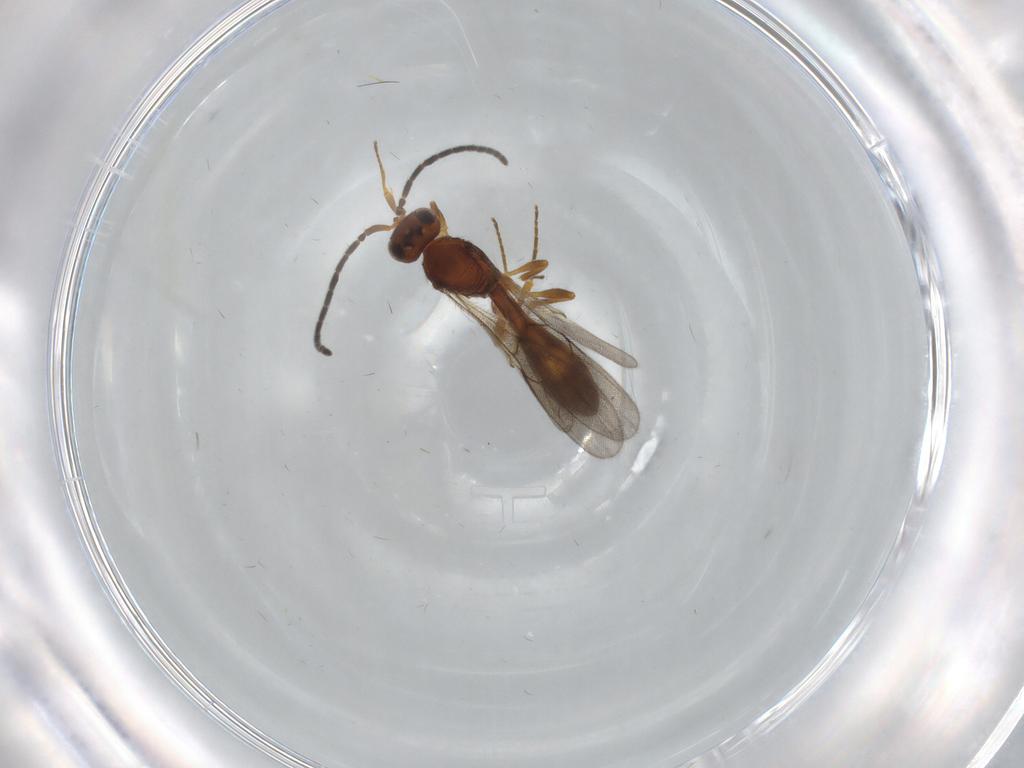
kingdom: Animalia
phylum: Arthropoda
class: Insecta
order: Hymenoptera
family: Scelionidae
